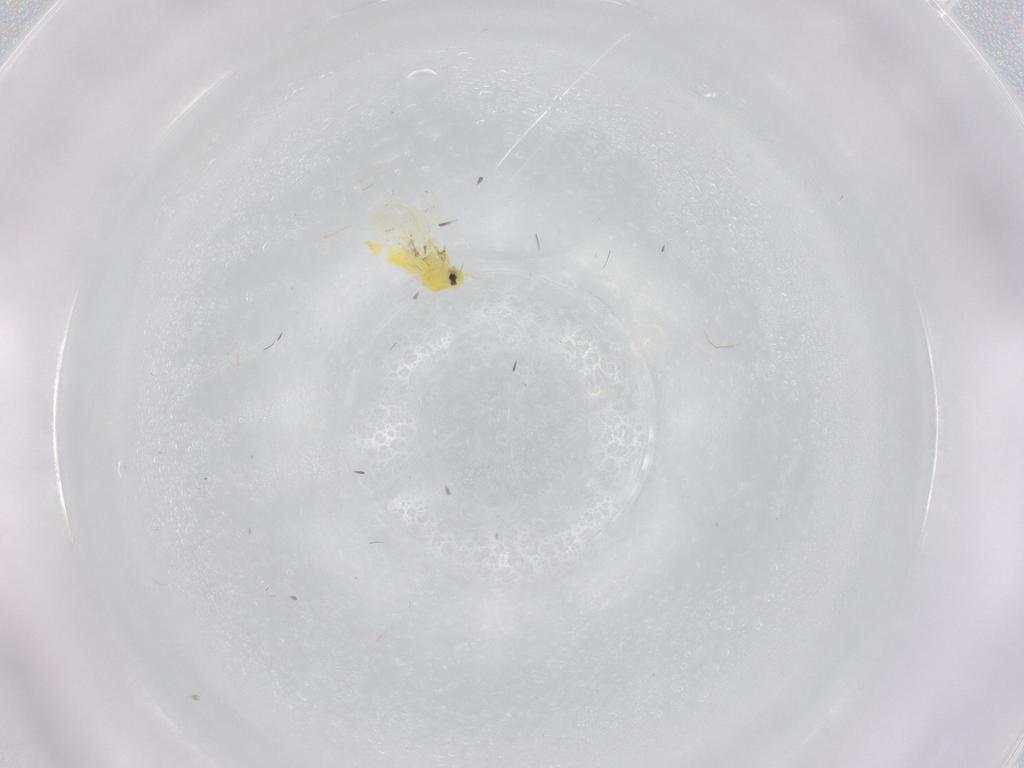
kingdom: Animalia
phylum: Arthropoda
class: Insecta
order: Hemiptera
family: Aleyrodidae
